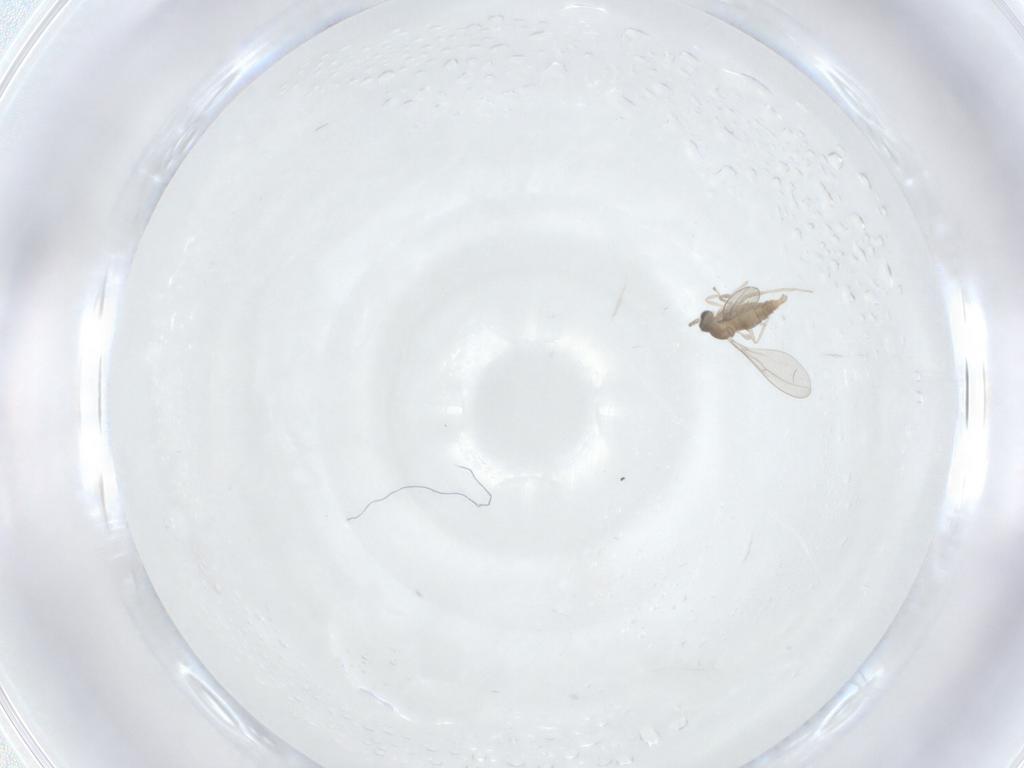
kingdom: Animalia
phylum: Arthropoda
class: Insecta
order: Diptera
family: Cecidomyiidae
